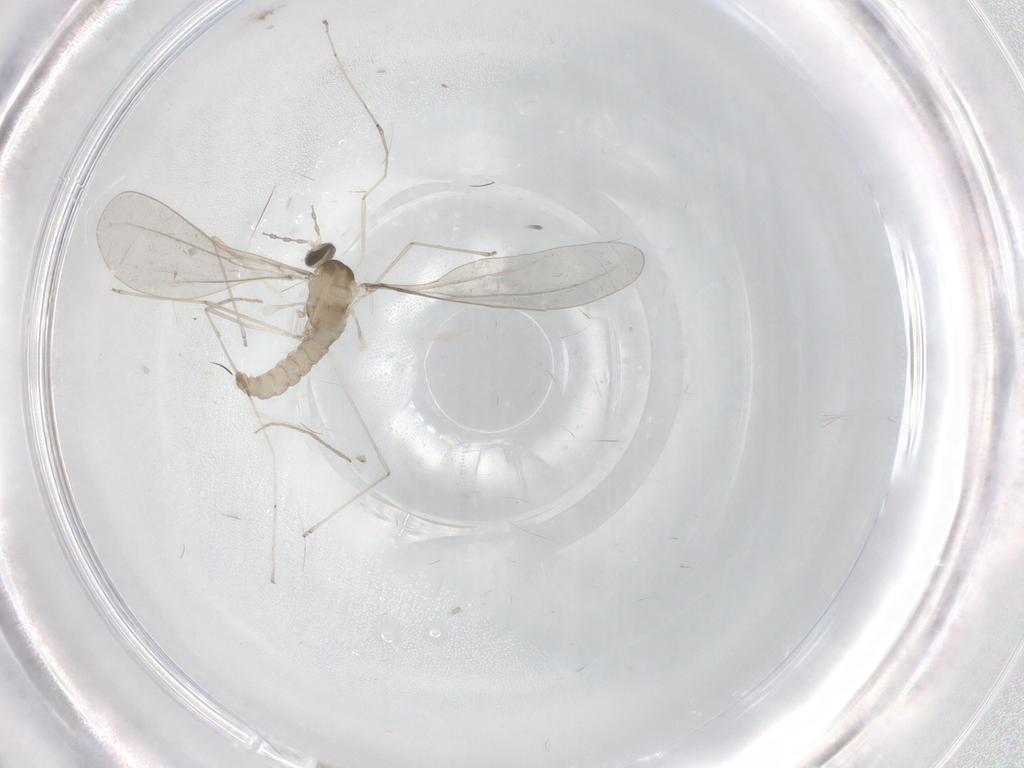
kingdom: Animalia
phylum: Arthropoda
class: Insecta
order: Diptera
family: Chironomidae
